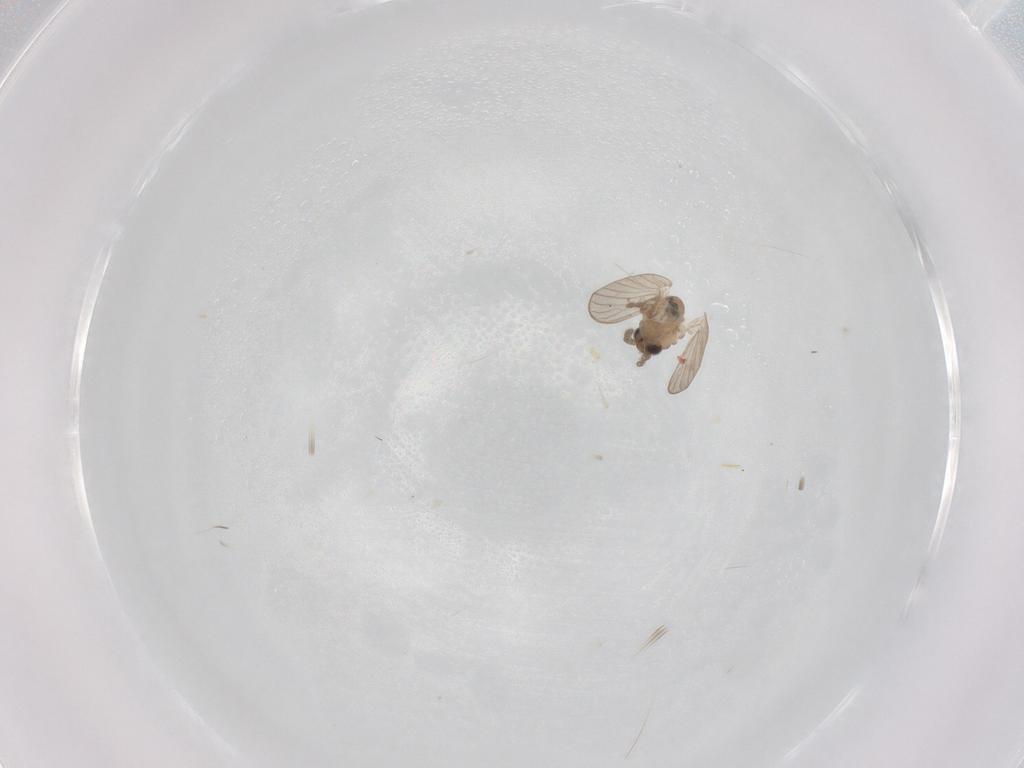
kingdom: Animalia
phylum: Arthropoda
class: Insecta
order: Diptera
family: Psychodidae
